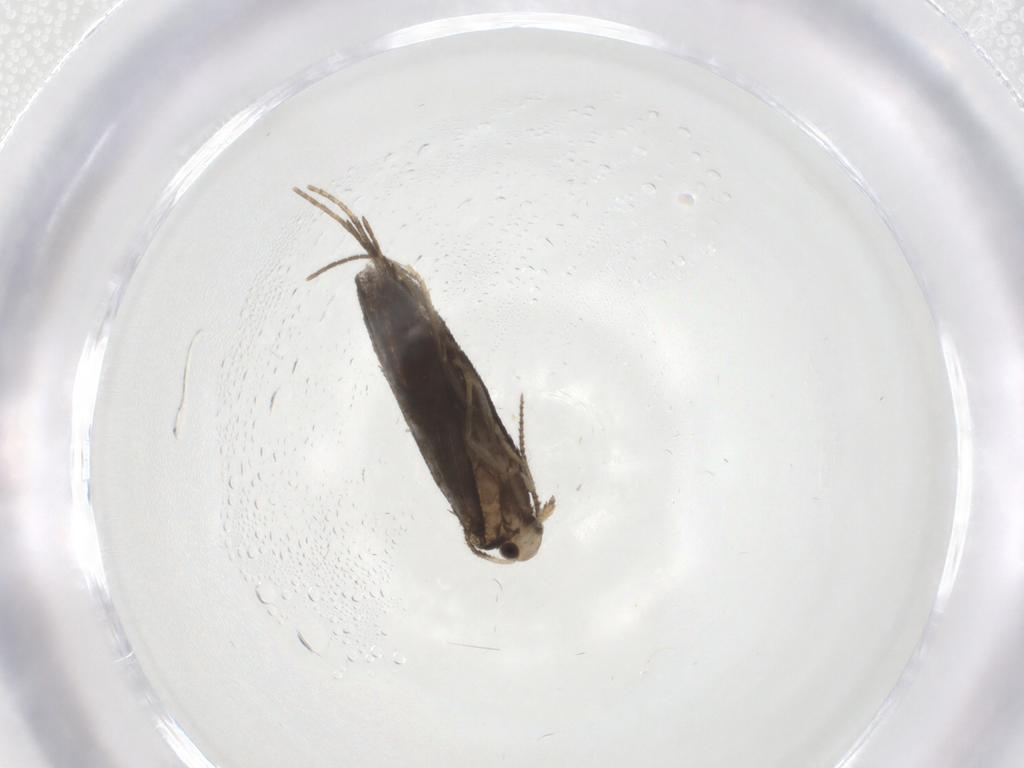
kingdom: Animalia
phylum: Arthropoda
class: Insecta
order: Lepidoptera
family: Psychidae
